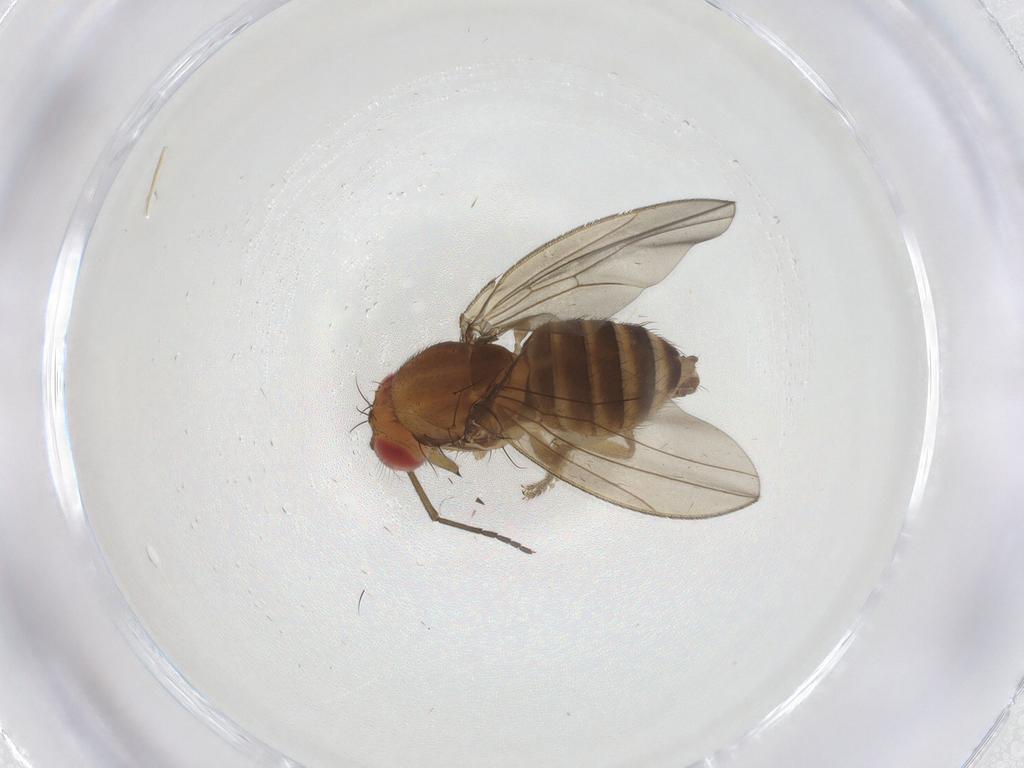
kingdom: Animalia
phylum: Arthropoda
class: Insecta
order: Diptera
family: Drosophilidae
